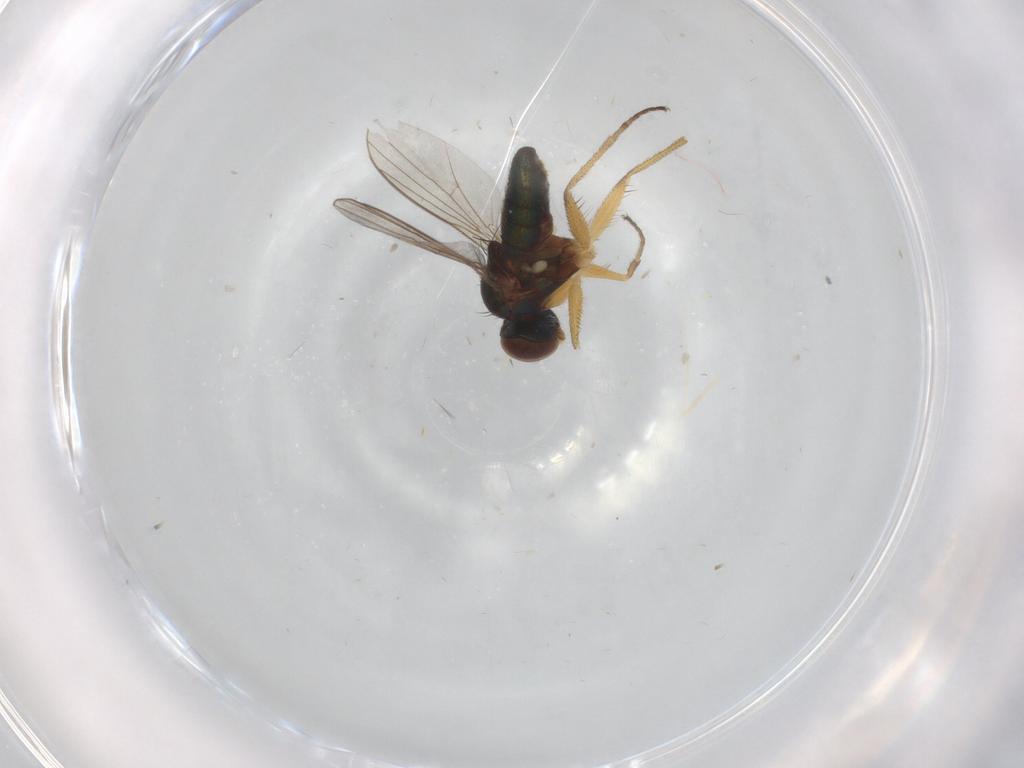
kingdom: Animalia
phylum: Arthropoda
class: Insecta
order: Diptera
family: Muscidae
